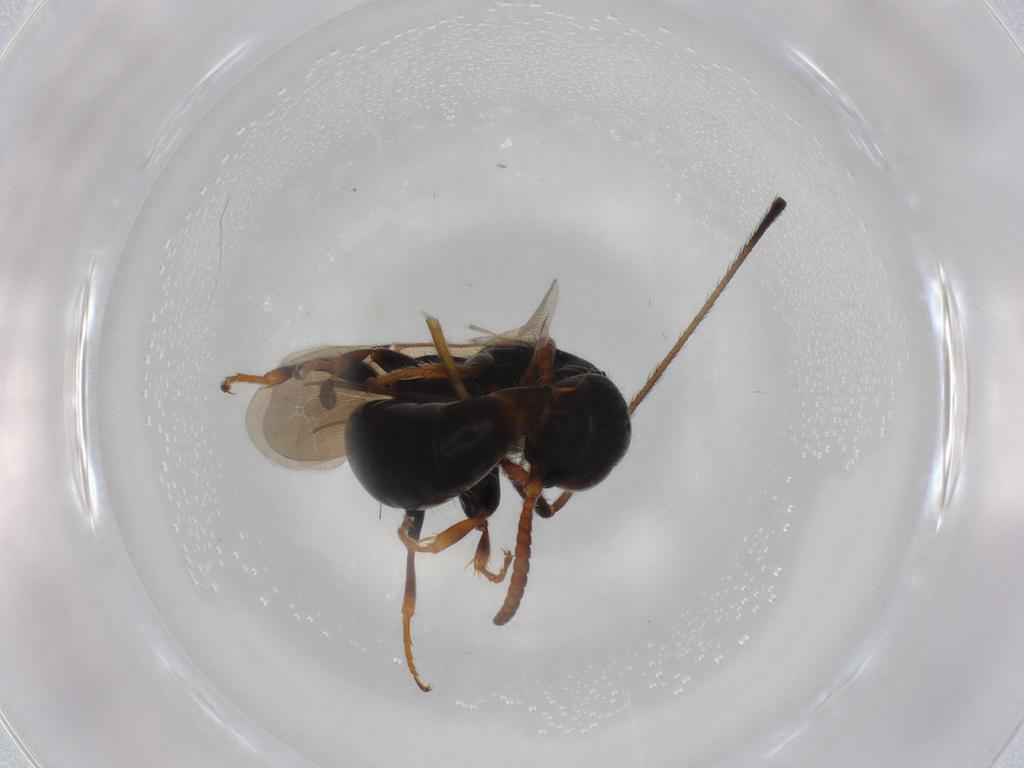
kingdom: Animalia
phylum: Arthropoda
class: Insecta
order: Hymenoptera
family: Bethylidae
